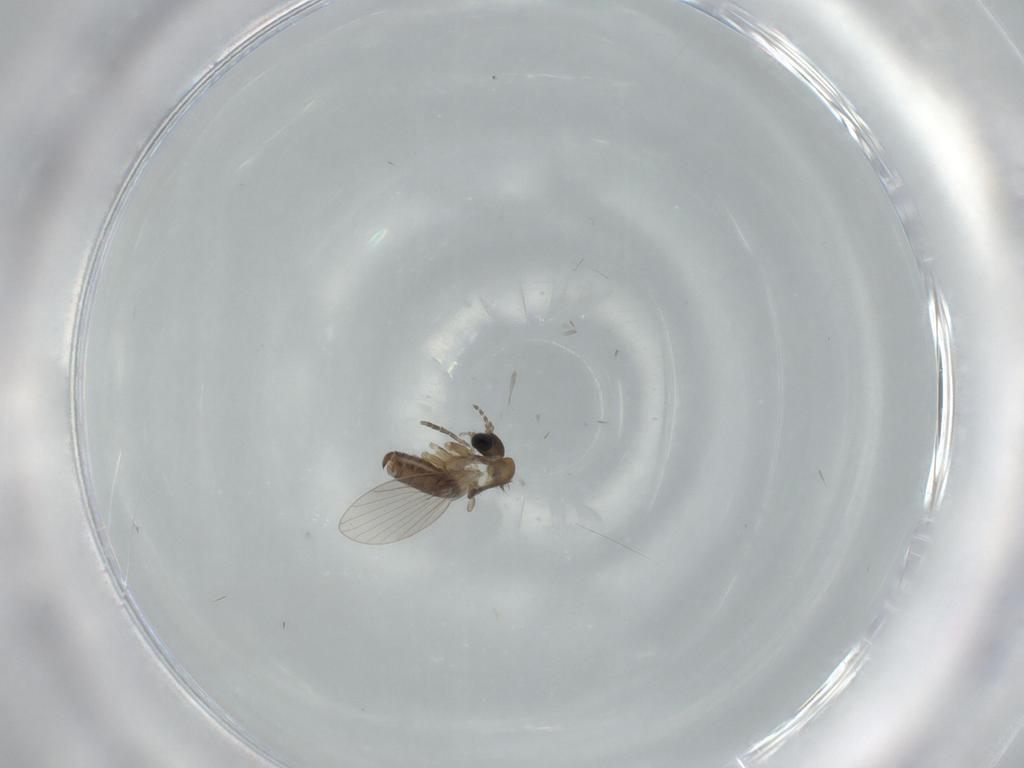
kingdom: Animalia
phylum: Arthropoda
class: Insecta
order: Diptera
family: Psychodidae
